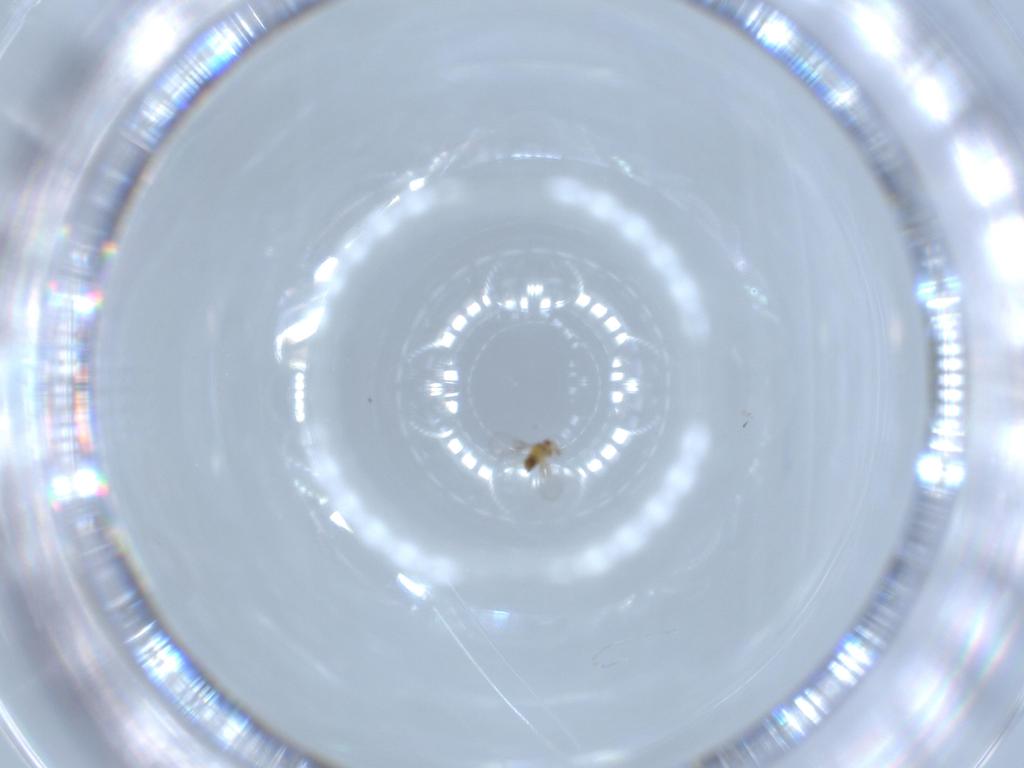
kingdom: Animalia
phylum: Arthropoda
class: Insecta
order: Hymenoptera
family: Trichogrammatidae
